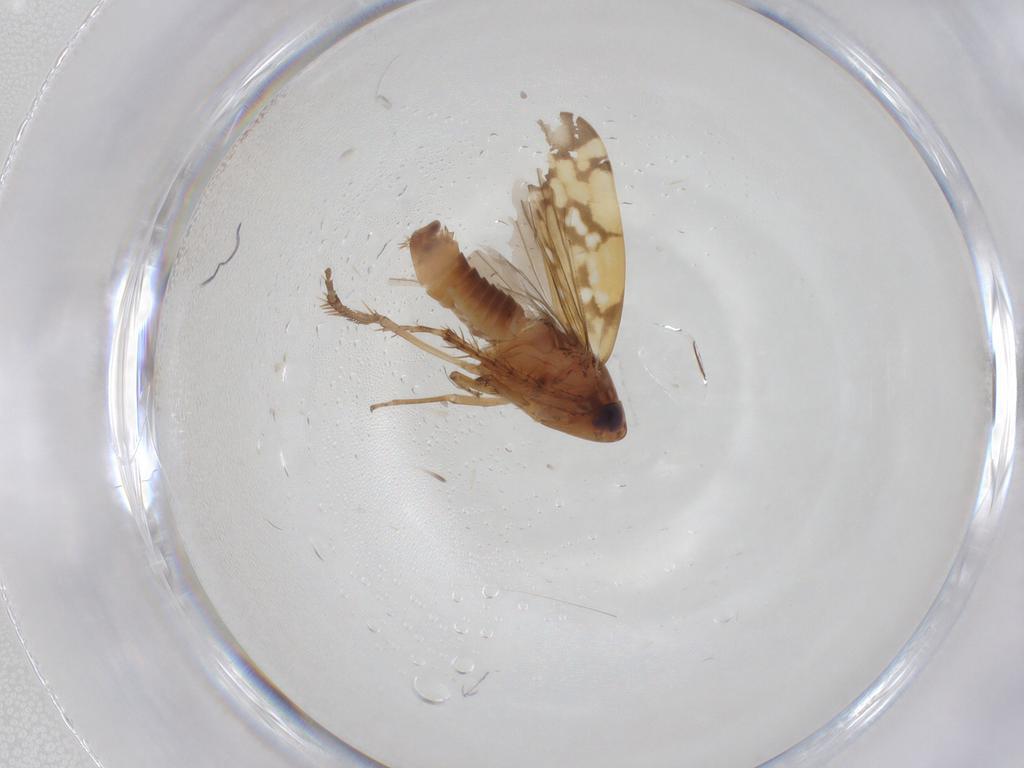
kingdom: Animalia
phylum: Arthropoda
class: Insecta
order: Hemiptera
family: Cicadellidae
